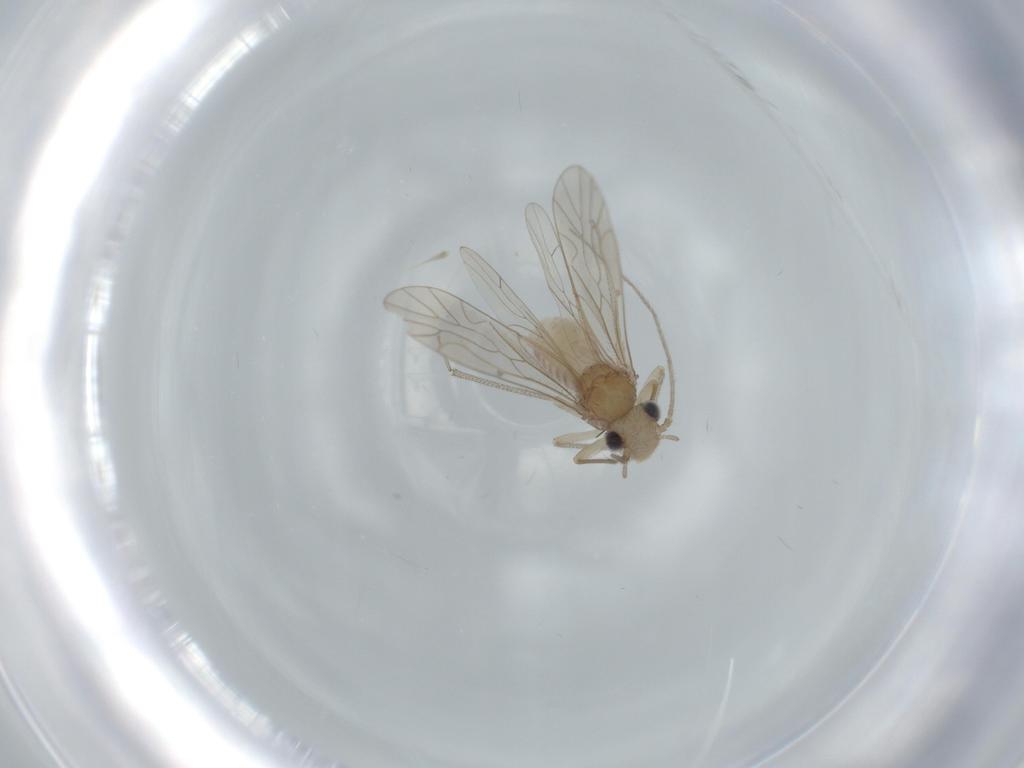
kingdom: Animalia
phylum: Arthropoda
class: Insecta
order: Psocodea
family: Caeciliusidae
